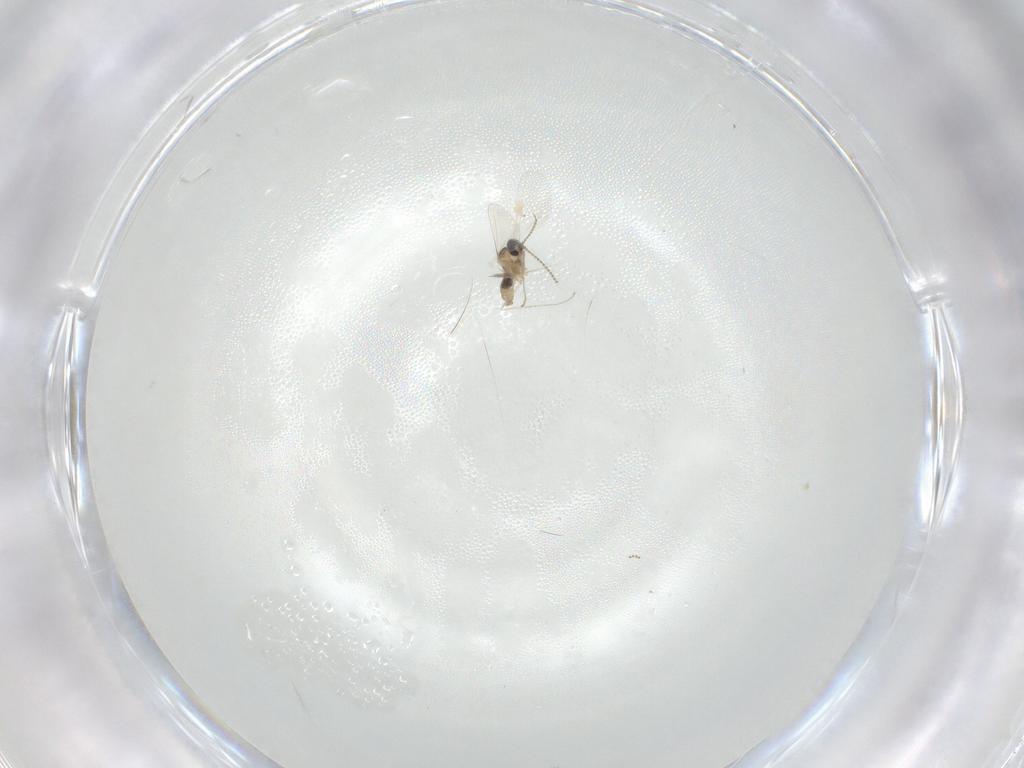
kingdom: Animalia
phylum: Arthropoda
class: Insecta
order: Diptera
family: Cecidomyiidae
